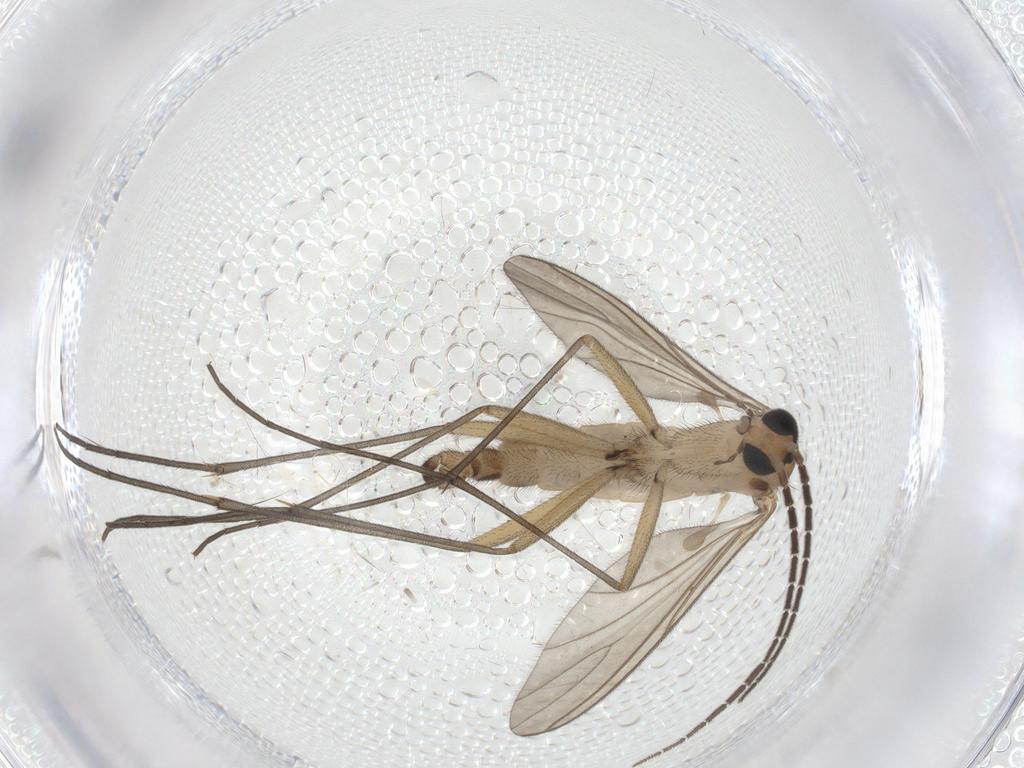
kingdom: Animalia
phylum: Arthropoda
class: Insecta
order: Diptera
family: Sciaridae
